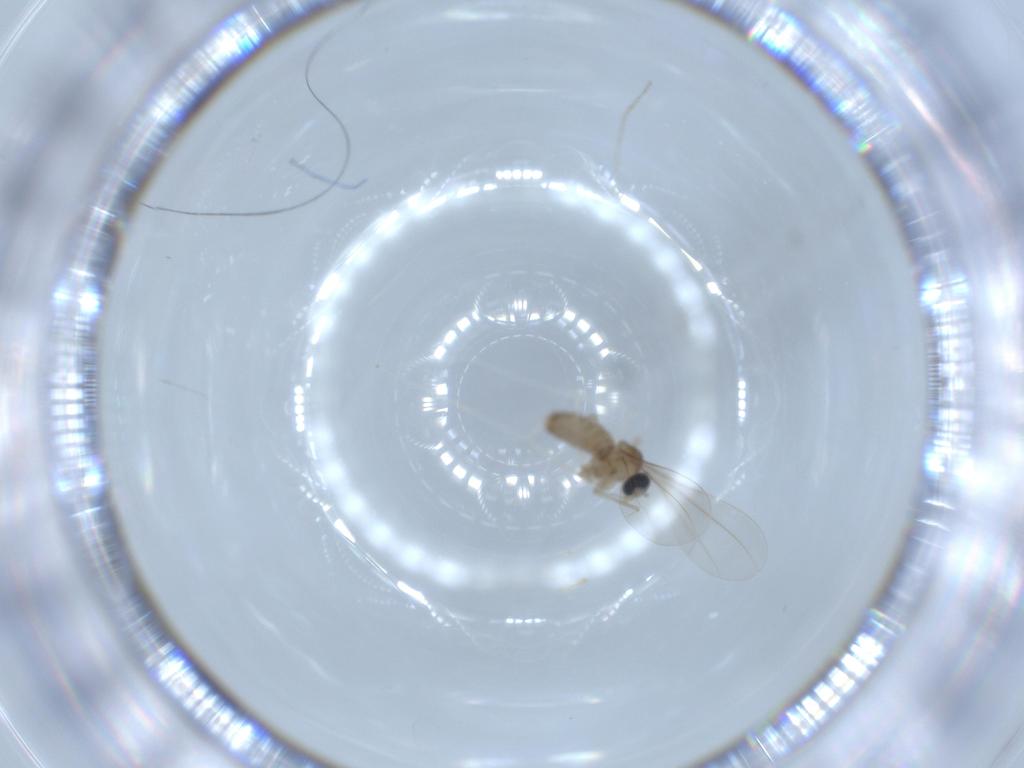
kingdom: Animalia
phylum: Arthropoda
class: Insecta
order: Diptera
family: Cecidomyiidae
